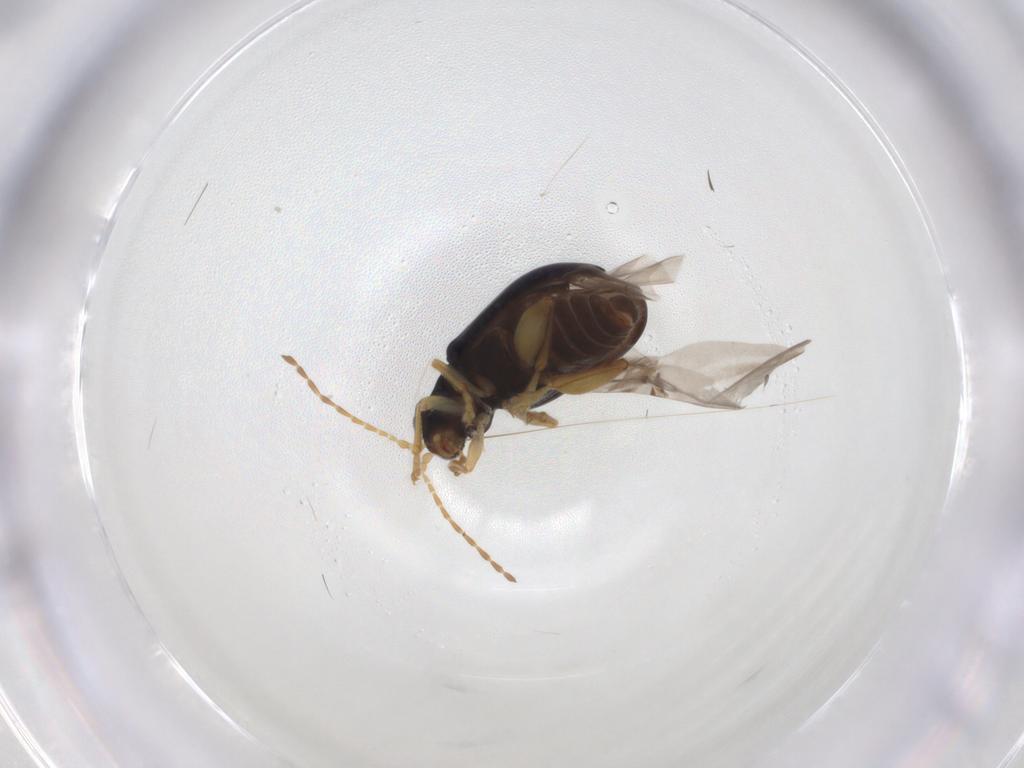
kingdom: Animalia
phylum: Arthropoda
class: Insecta
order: Coleoptera
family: Chrysomelidae
